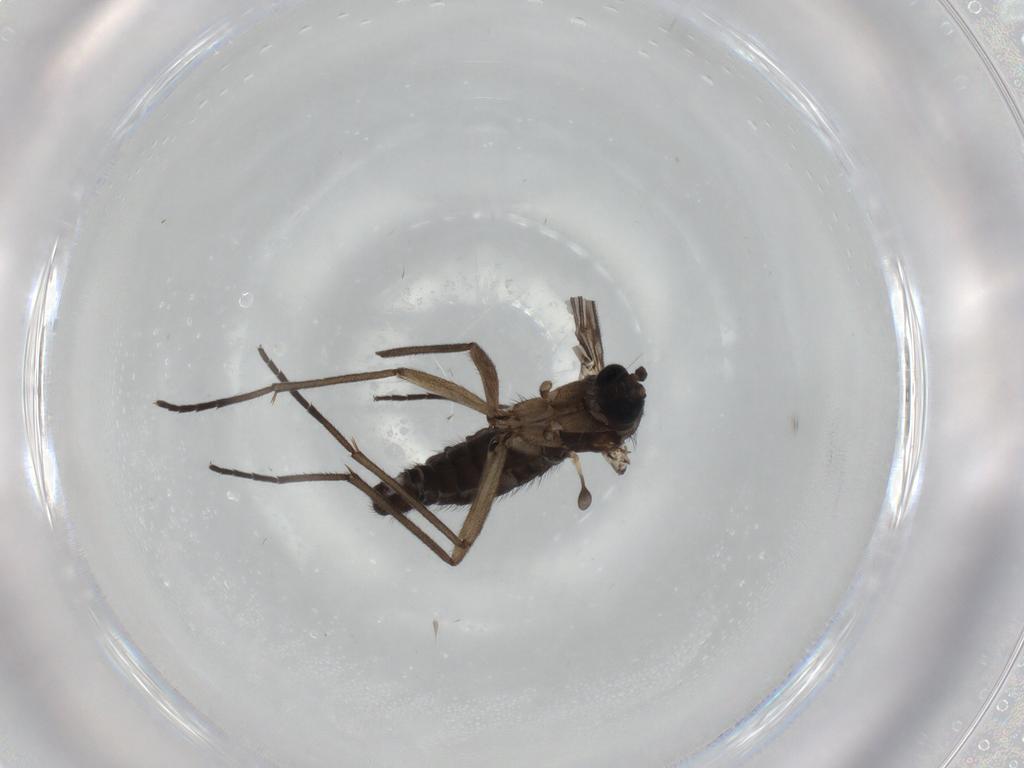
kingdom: Animalia
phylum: Arthropoda
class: Insecta
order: Diptera
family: Sciaridae
